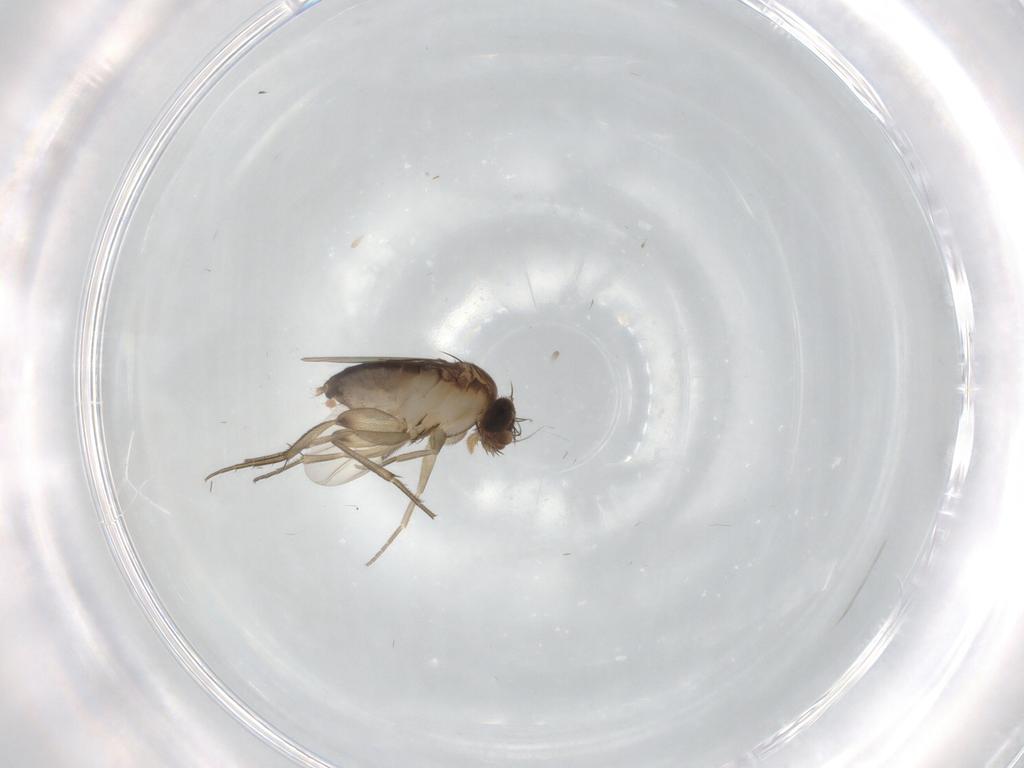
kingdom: Animalia
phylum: Arthropoda
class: Insecta
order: Diptera
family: Phoridae
